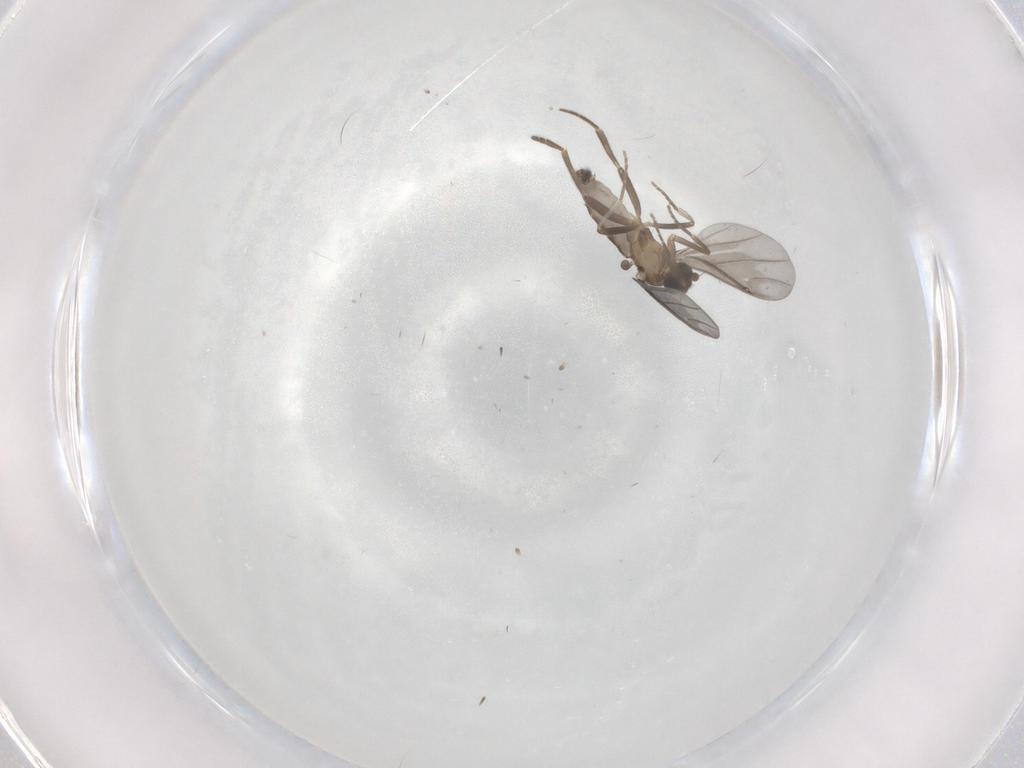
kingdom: Animalia
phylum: Arthropoda
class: Insecta
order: Diptera
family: Phoridae
